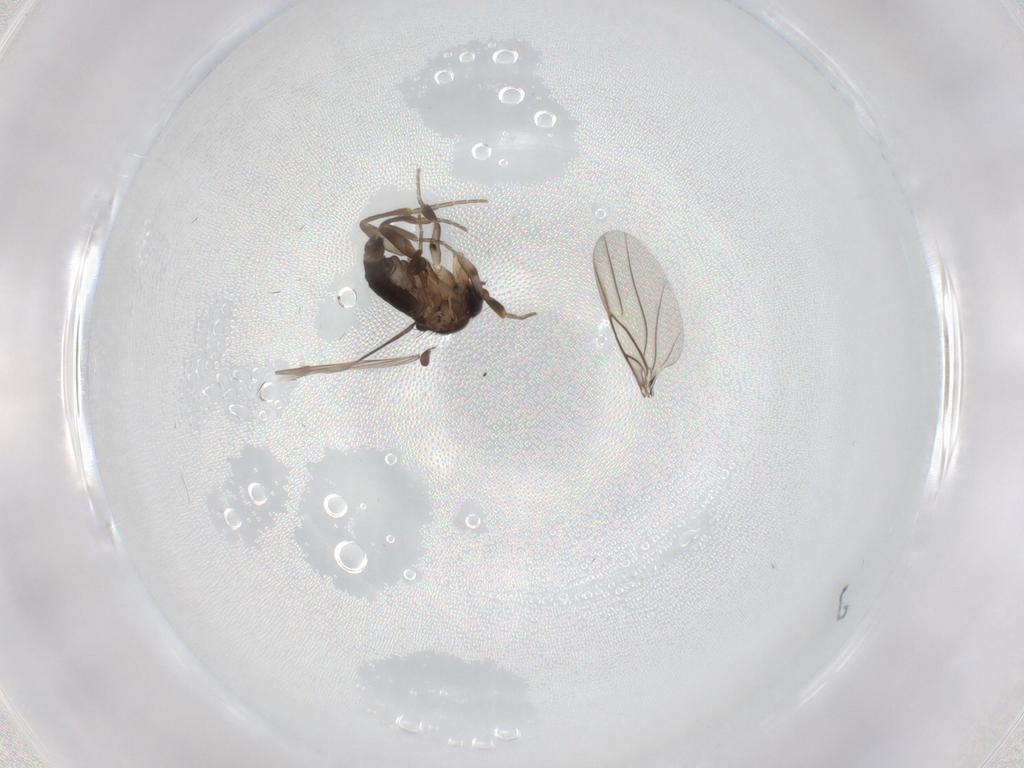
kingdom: Animalia
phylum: Arthropoda
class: Insecta
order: Diptera
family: Phoridae
